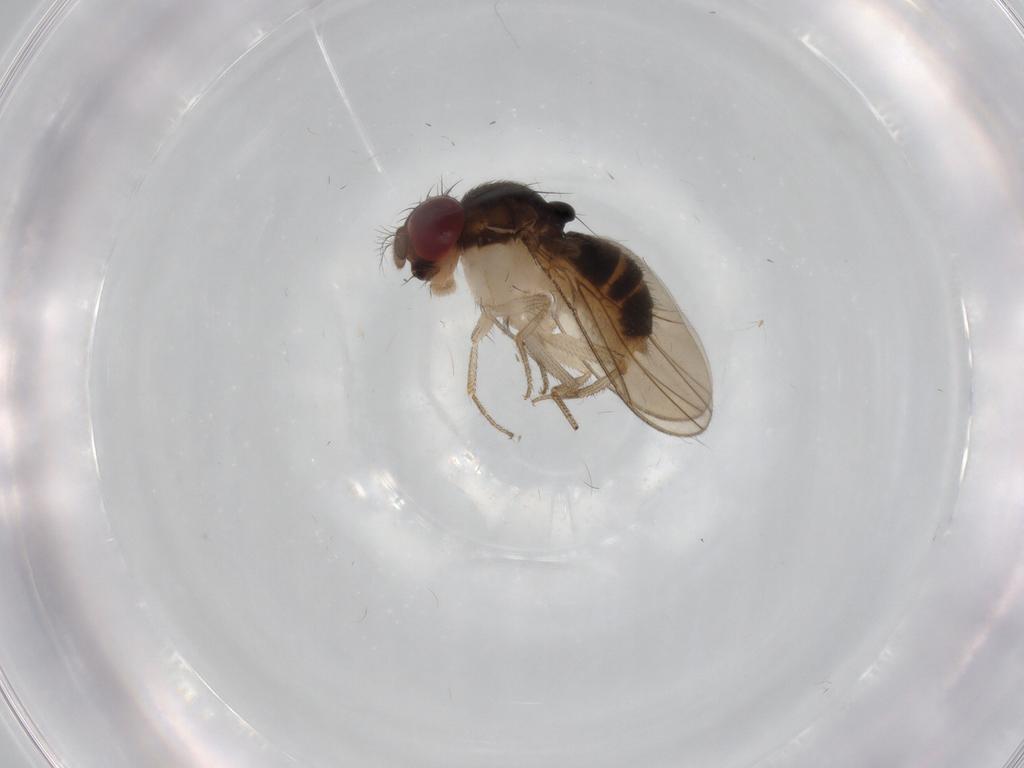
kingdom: Animalia
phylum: Arthropoda
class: Insecta
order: Diptera
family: Drosophilidae
